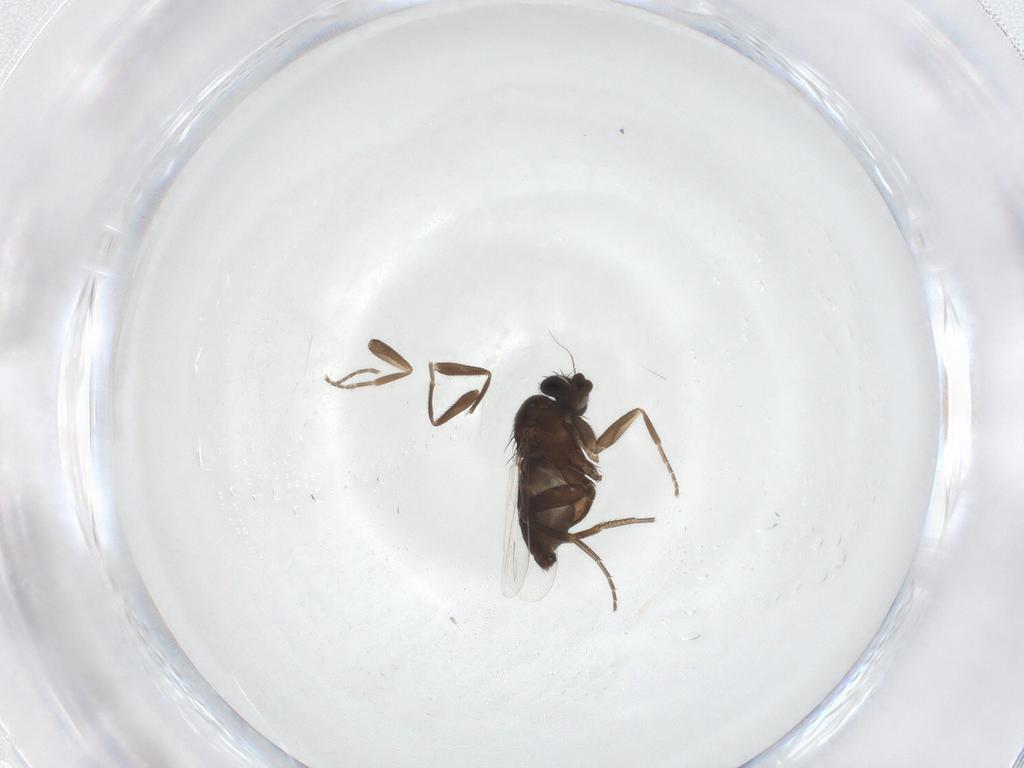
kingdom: Animalia
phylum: Arthropoda
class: Insecta
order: Diptera
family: Phoridae
